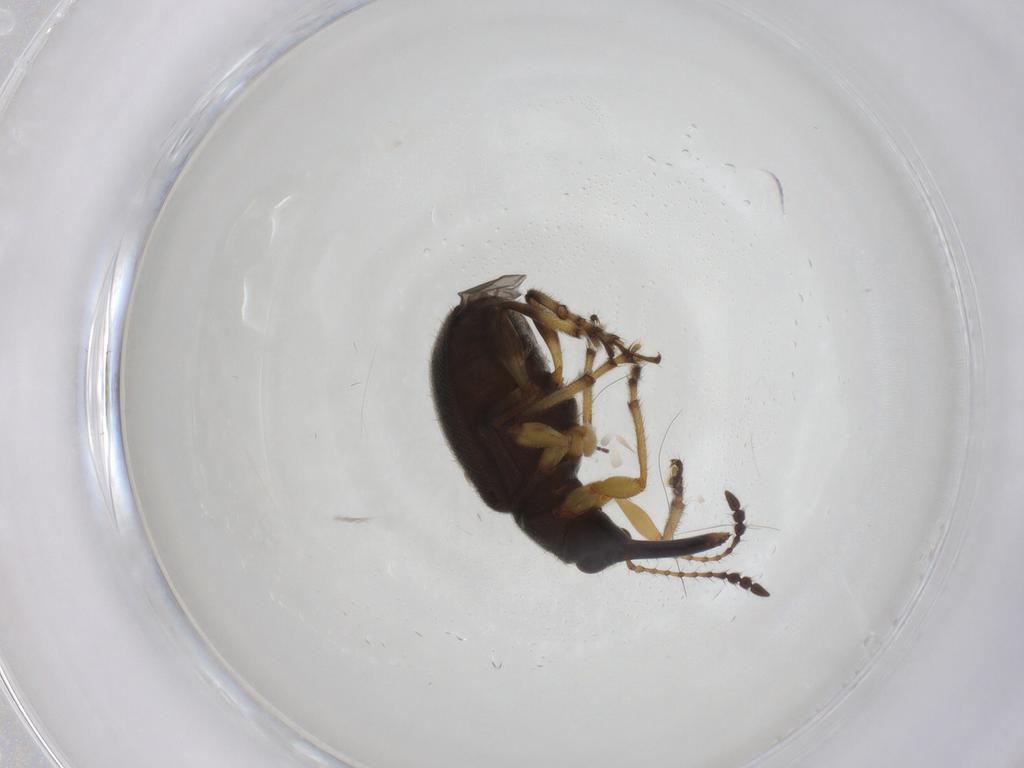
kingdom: Animalia
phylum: Arthropoda
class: Insecta
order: Coleoptera
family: Attelabidae
